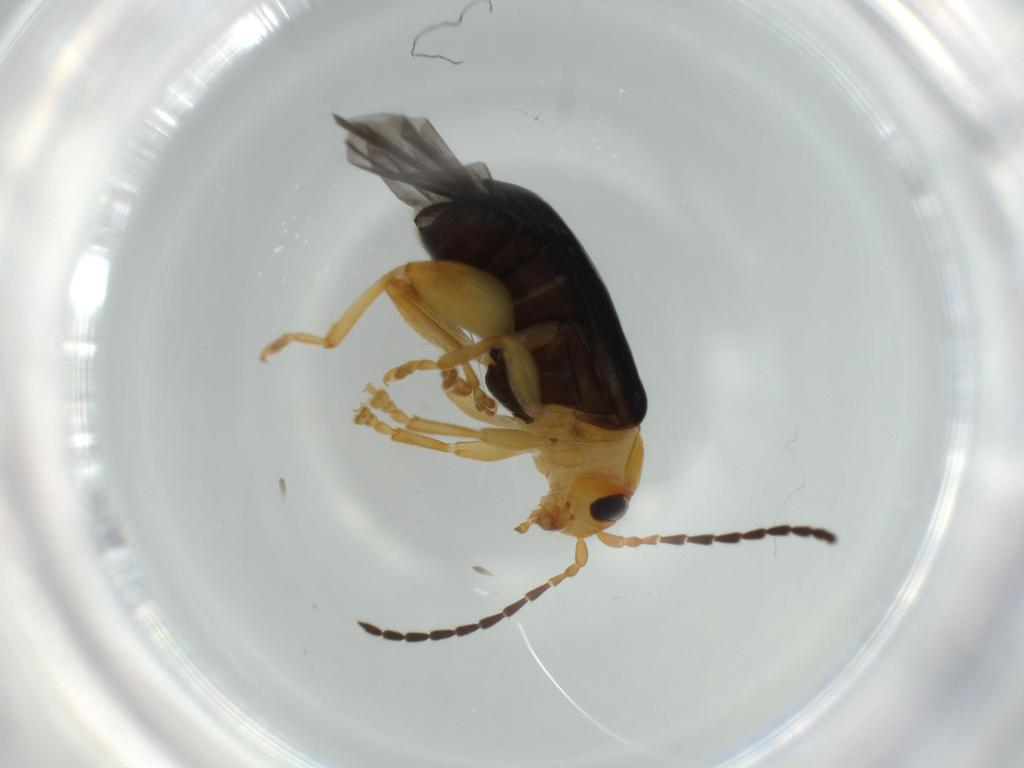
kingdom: Animalia
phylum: Arthropoda
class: Insecta
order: Coleoptera
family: Chrysomelidae
